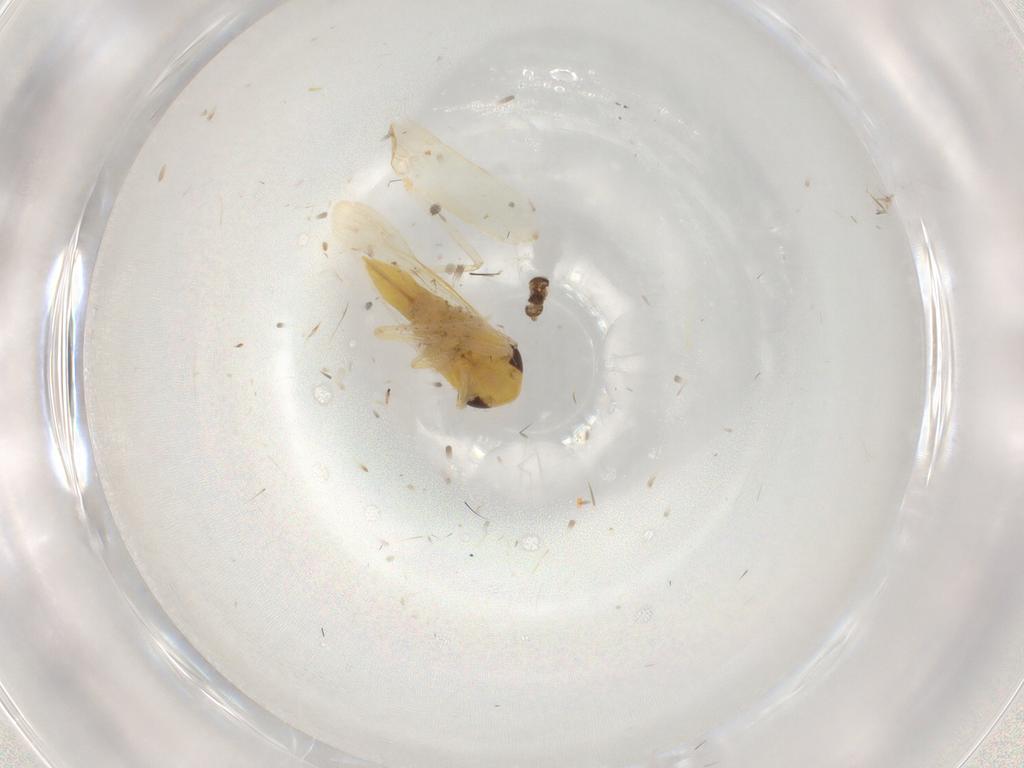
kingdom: Animalia
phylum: Arthropoda
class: Insecta
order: Hemiptera
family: Cicadellidae
